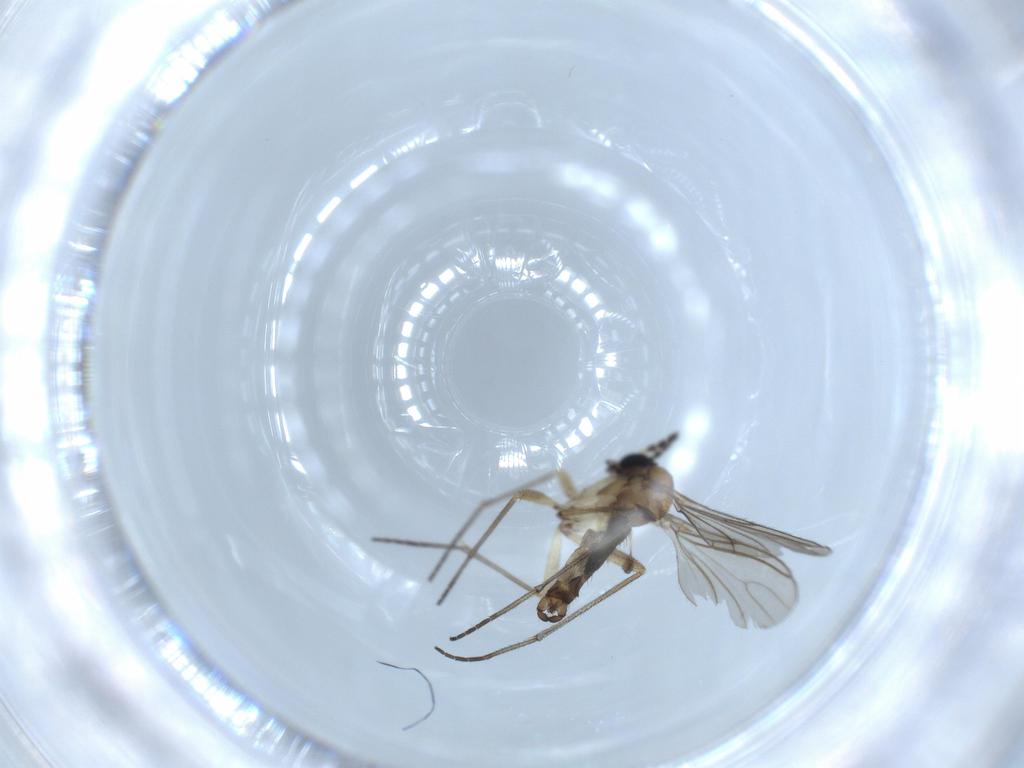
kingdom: Animalia
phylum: Arthropoda
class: Insecta
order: Diptera
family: Sciaridae
